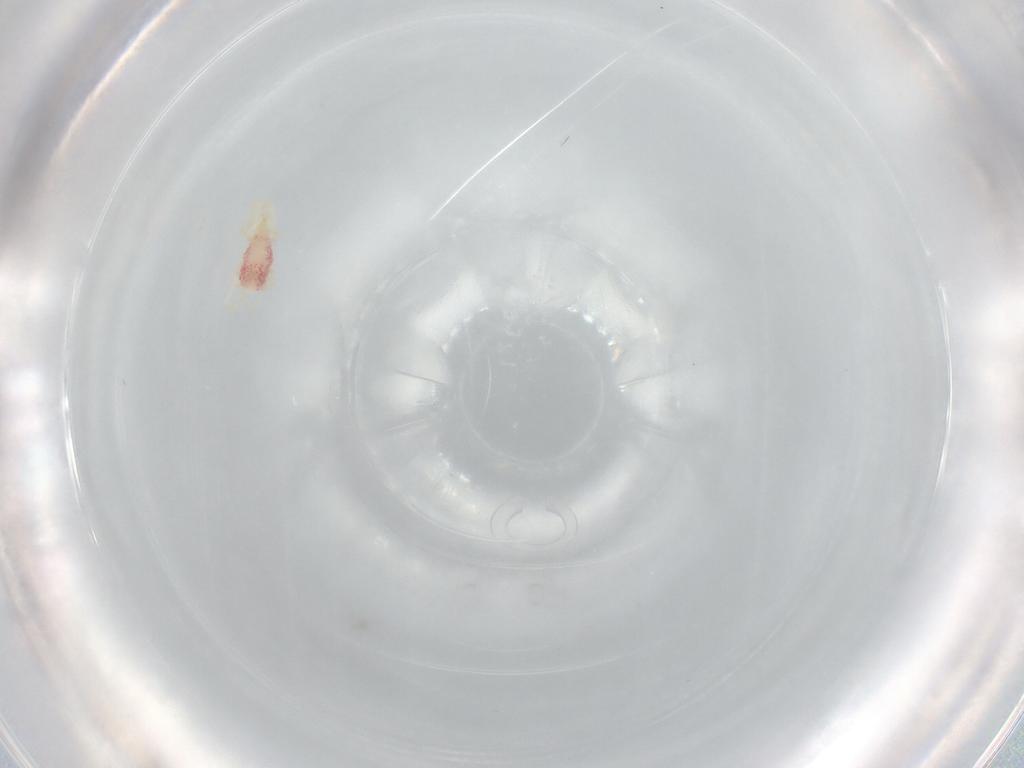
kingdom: Animalia
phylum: Arthropoda
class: Arachnida
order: Trombidiformes
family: Erythraeidae
